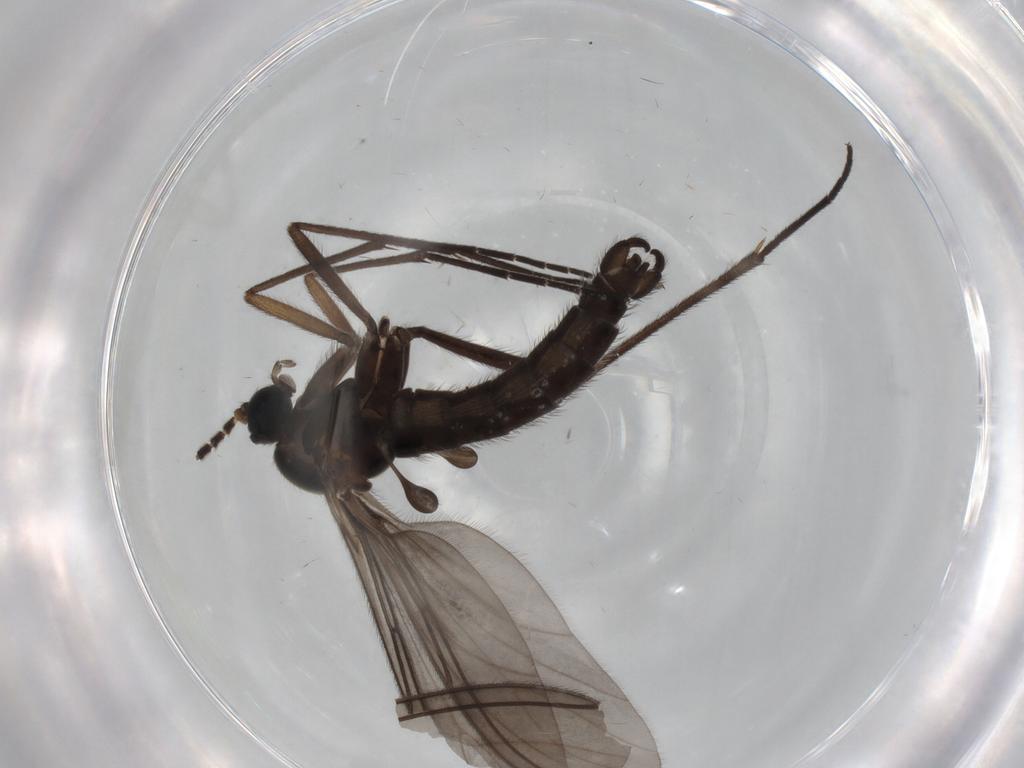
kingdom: Animalia
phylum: Arthropoda
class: Insecta
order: Diptera
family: Sciaridae
